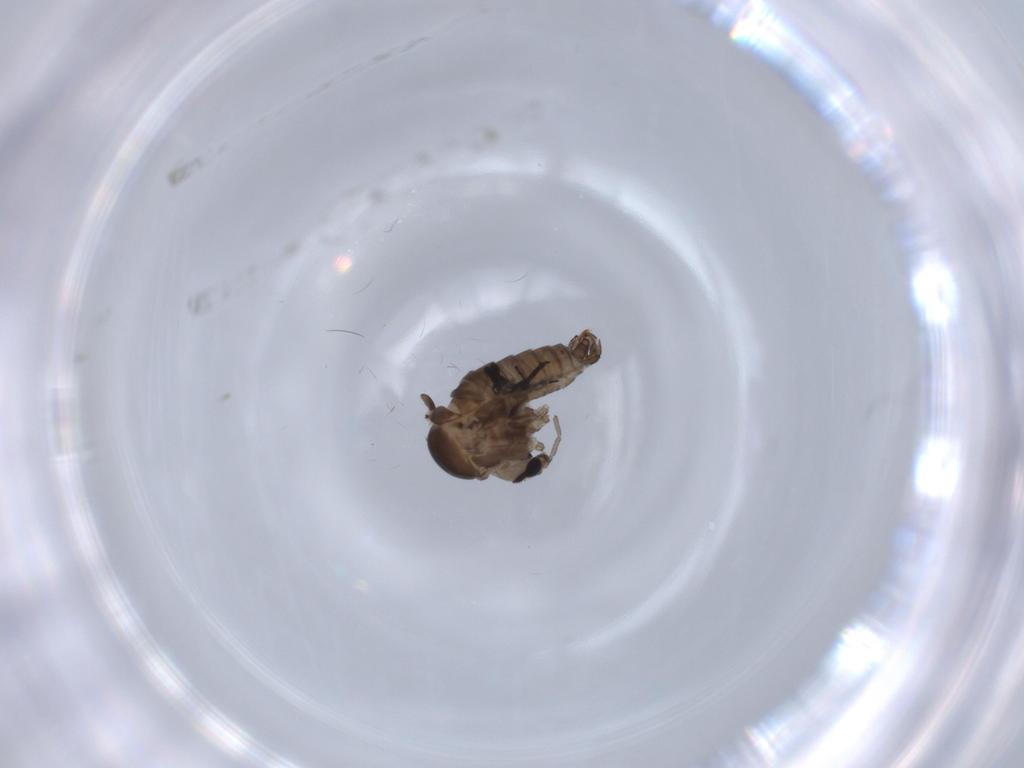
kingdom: Animalia
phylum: Arthropoda
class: Insecta
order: Diptera
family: Psychodidae
